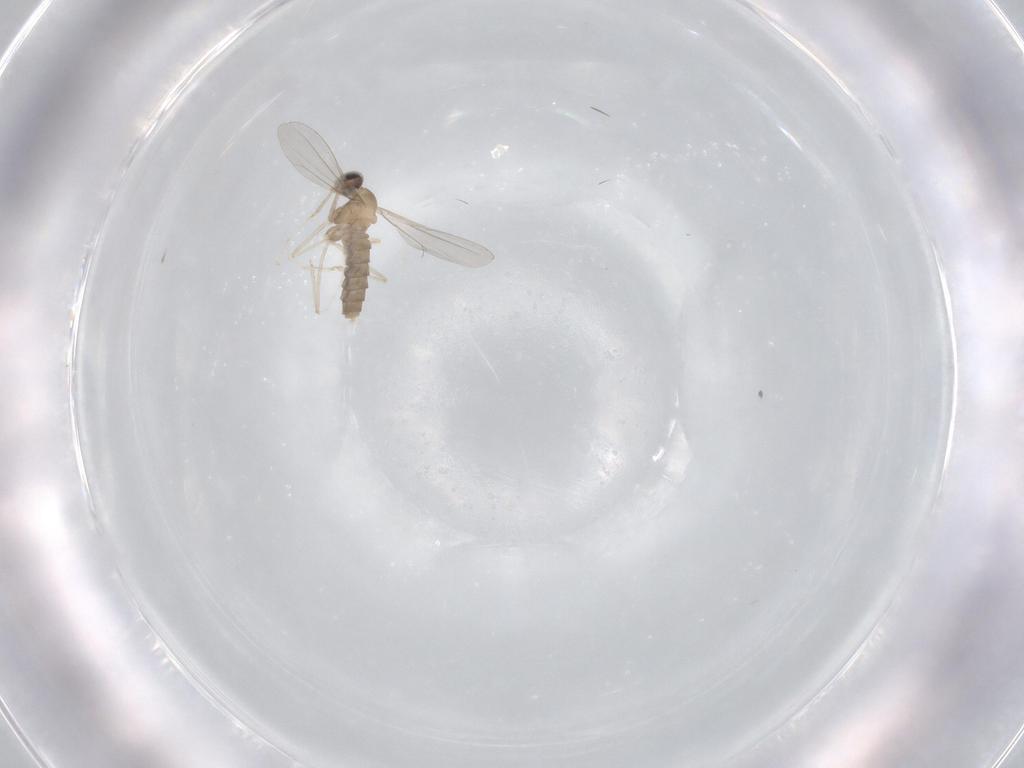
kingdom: Animalia
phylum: Arthropoda
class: Insecta
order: Diptera
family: Cecidomyiidae
